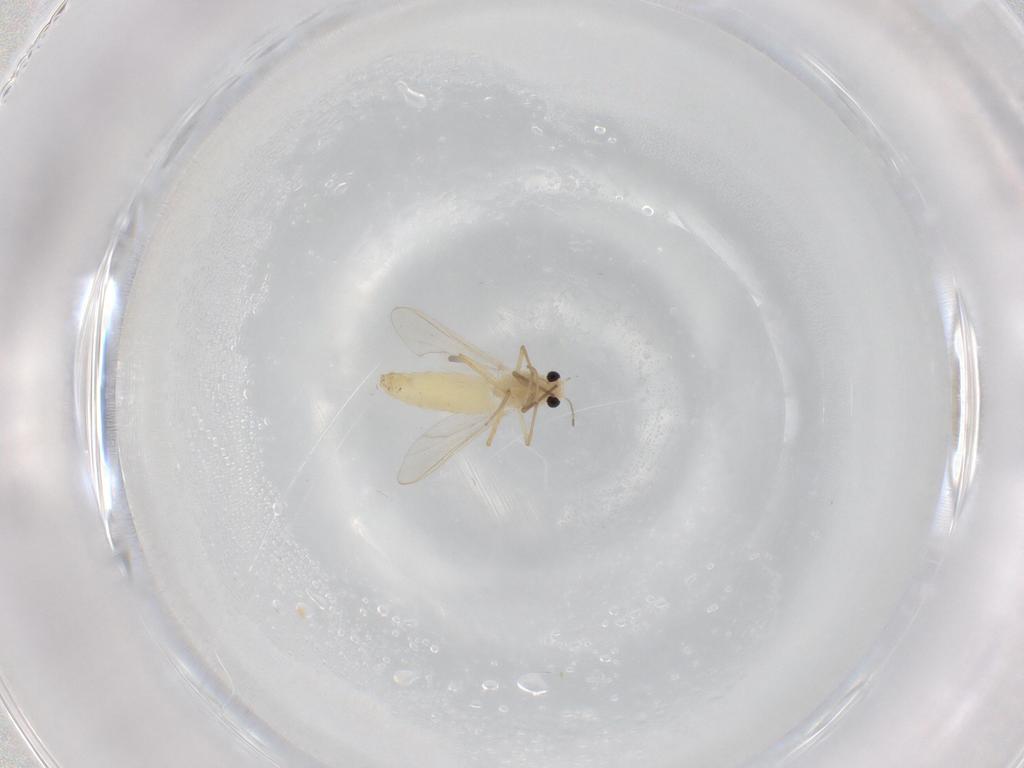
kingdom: Animalia
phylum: Arthropoda
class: Insecta
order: Diptera
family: Chironomidae
